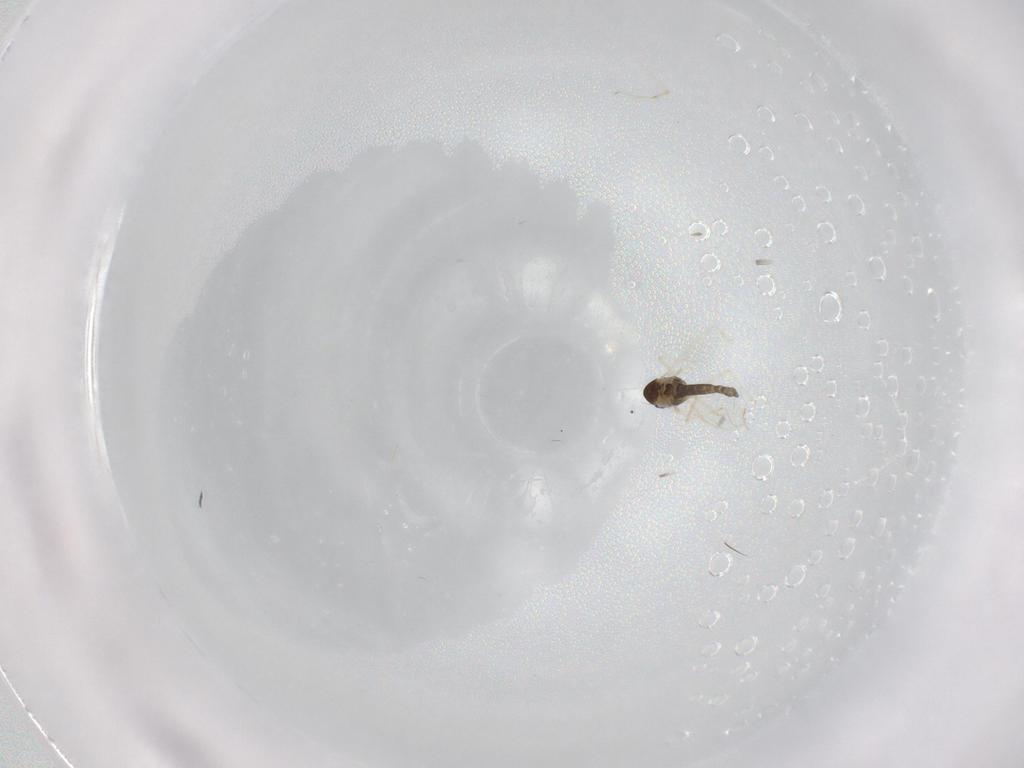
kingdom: Animalia
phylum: Arthropoda
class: Insecta
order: Diptera
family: Chironomidae
